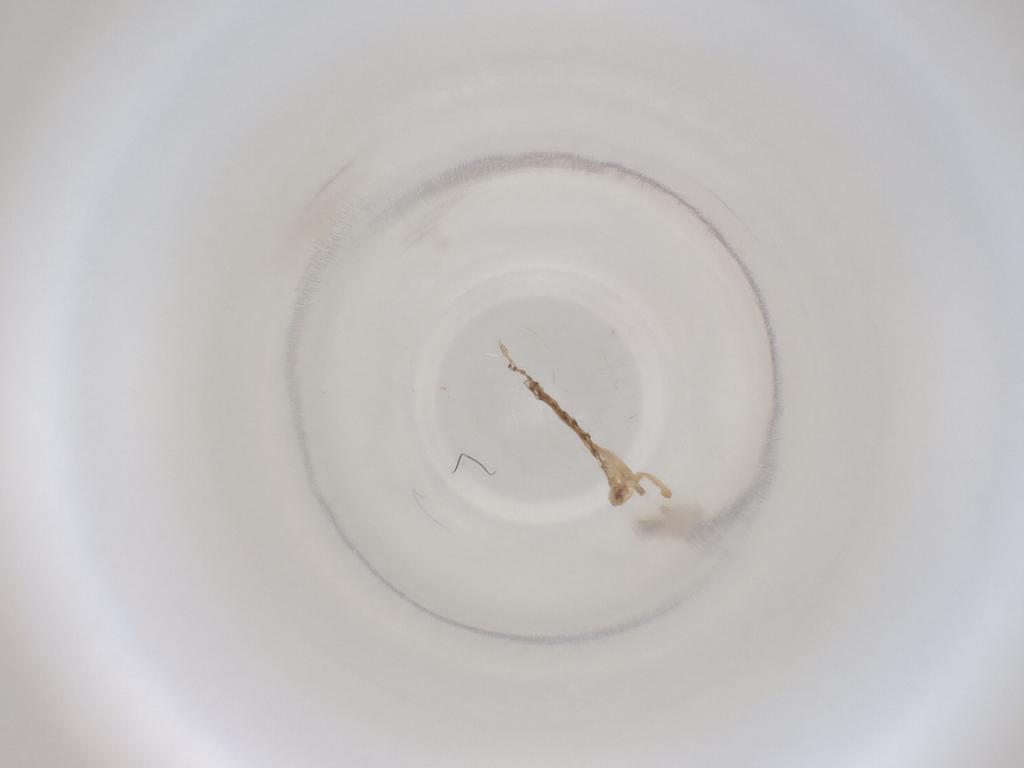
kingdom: Animalia
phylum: Arthropoda
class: Insecta
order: Diptera
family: Cecidomyiidae
